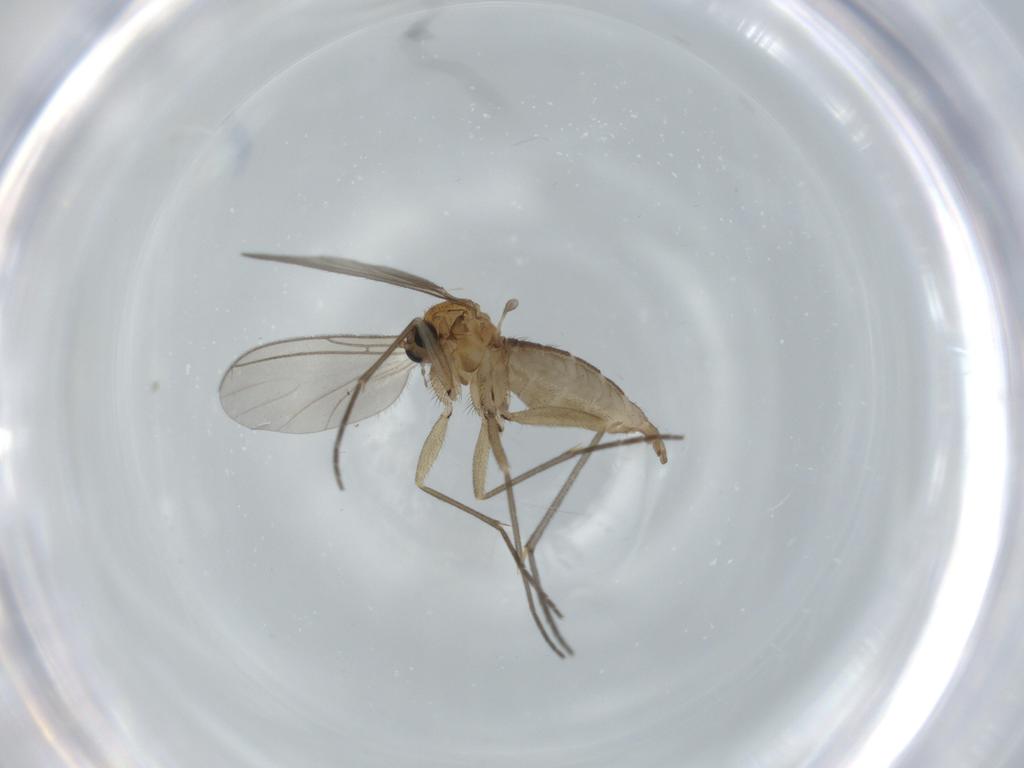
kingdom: Animalia
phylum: Arthropoda
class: Insecta
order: Diptera
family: Sciaridae
